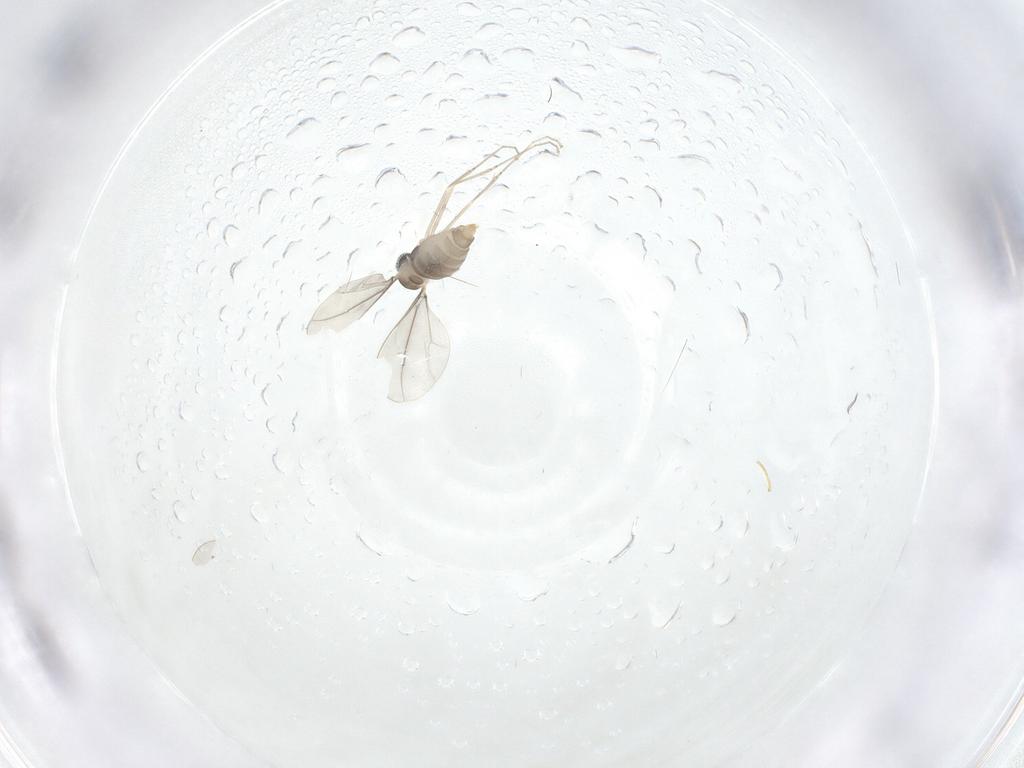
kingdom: Animalia
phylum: Arthropoda
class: Insecta
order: Diptera
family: Cecidomyiidae
